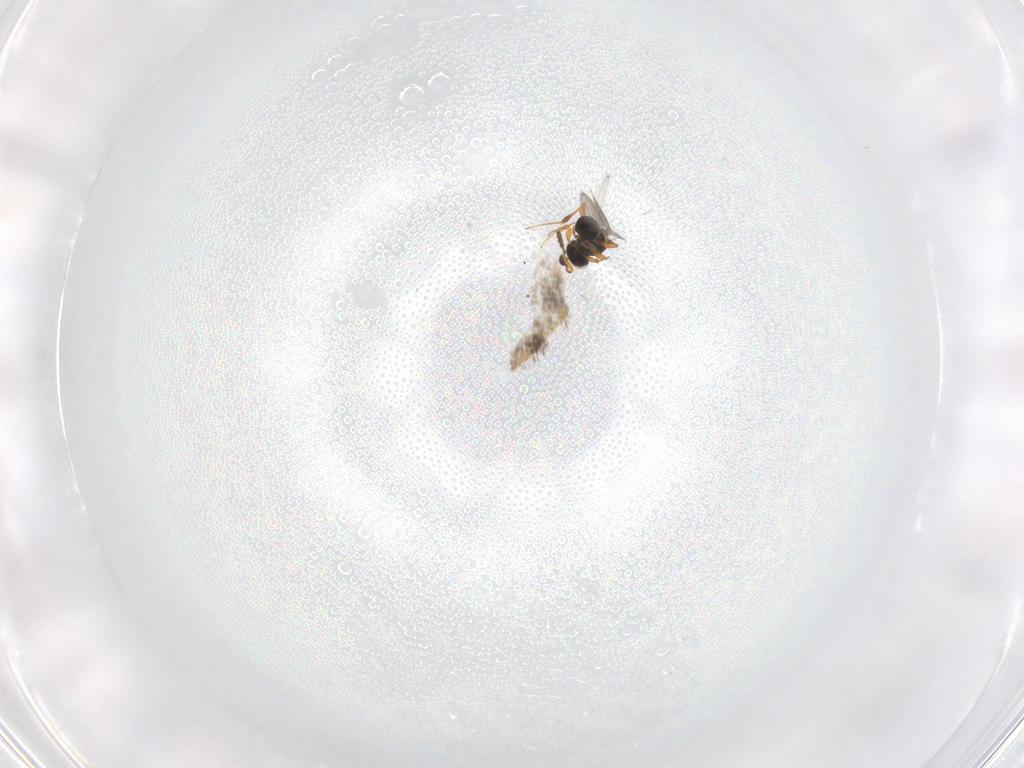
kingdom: Animalia
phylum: Arthropoda
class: Insecta
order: Hymenoptera
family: Platygastridae
